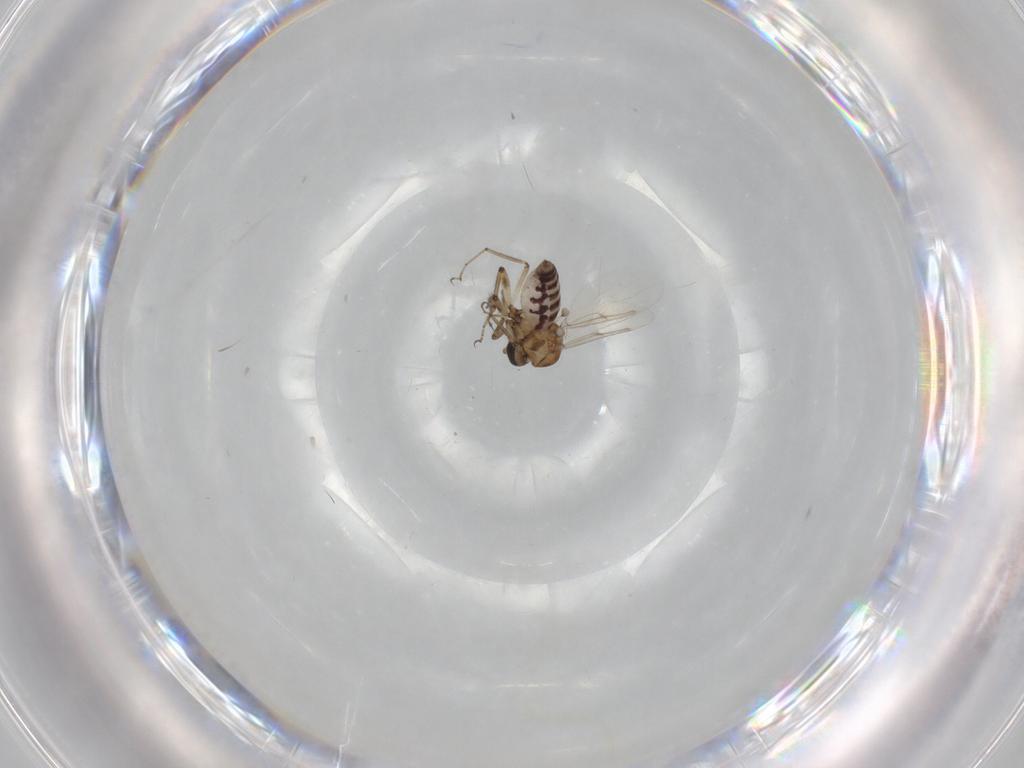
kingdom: Animalia
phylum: Arthropoda
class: Insecta
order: Diptera
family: Ceratopogonidae
